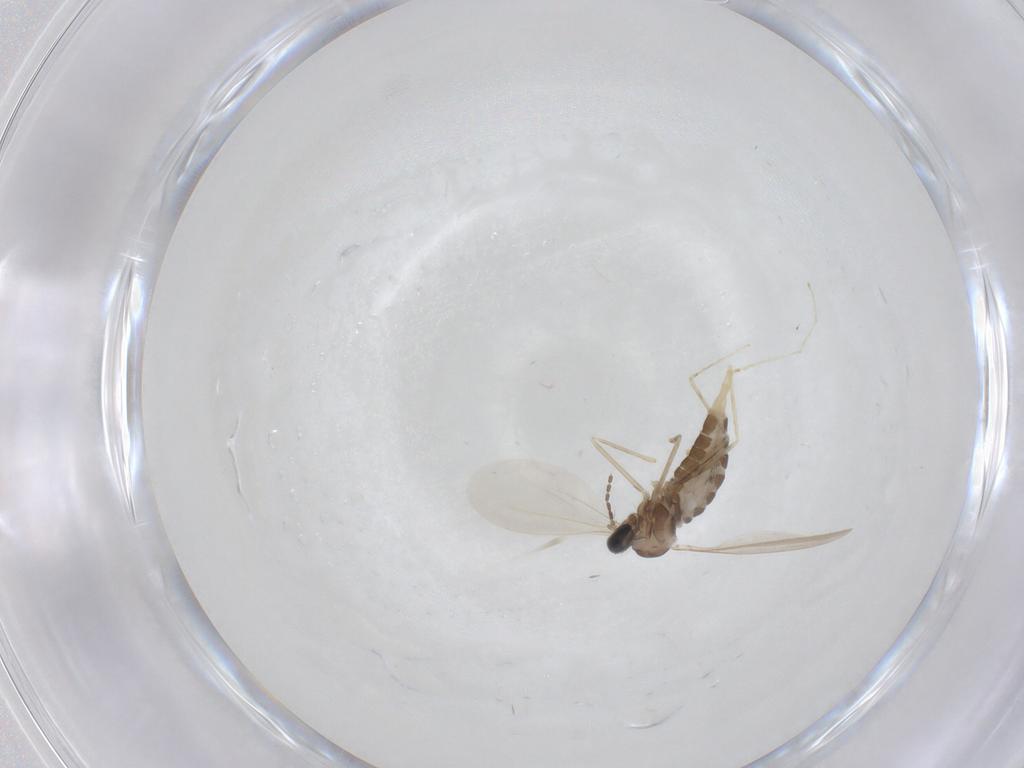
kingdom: Animalia
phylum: Arthropoda
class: Insecta
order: Diptera
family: Cecidomyiidae
